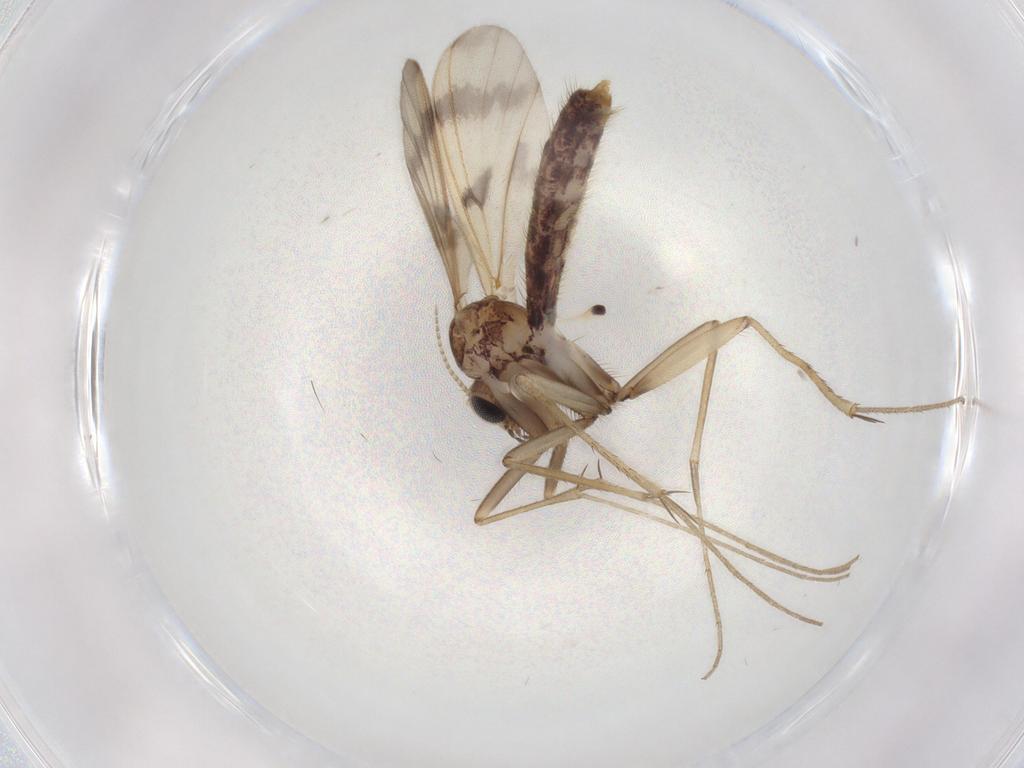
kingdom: Animalia
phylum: Arthropoda
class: Insecta
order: Diptera
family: Mycetophilidae
